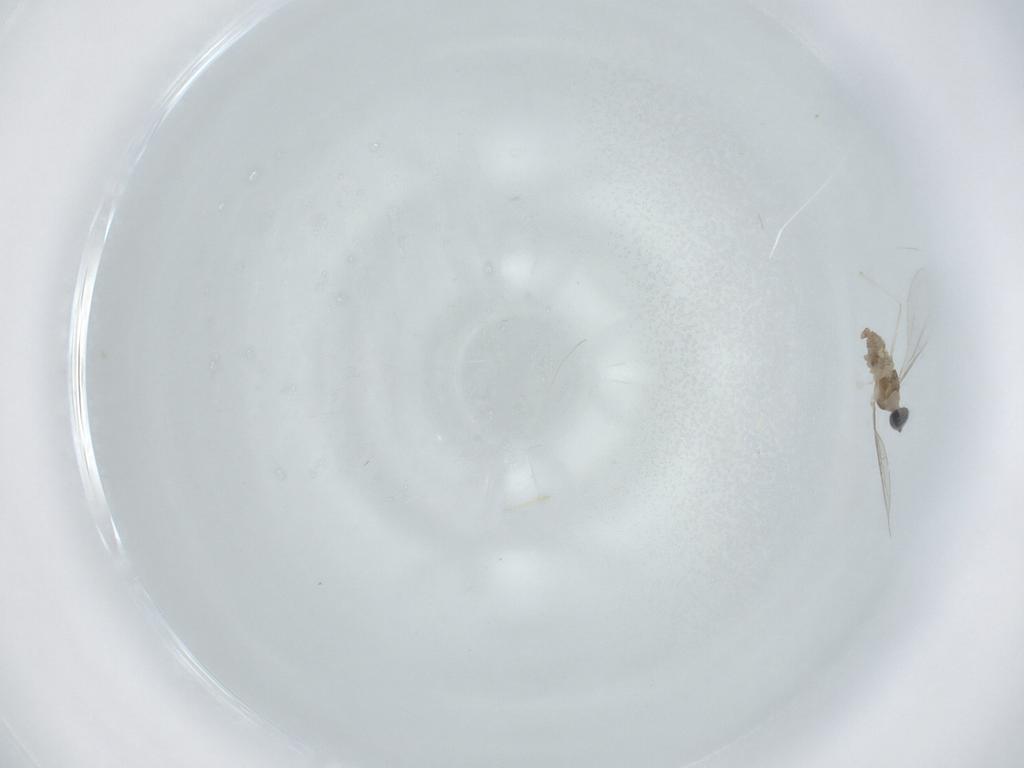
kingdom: Animalia
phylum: Arthropoda
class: Insecta
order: Diptera
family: Cecidomyiidae
